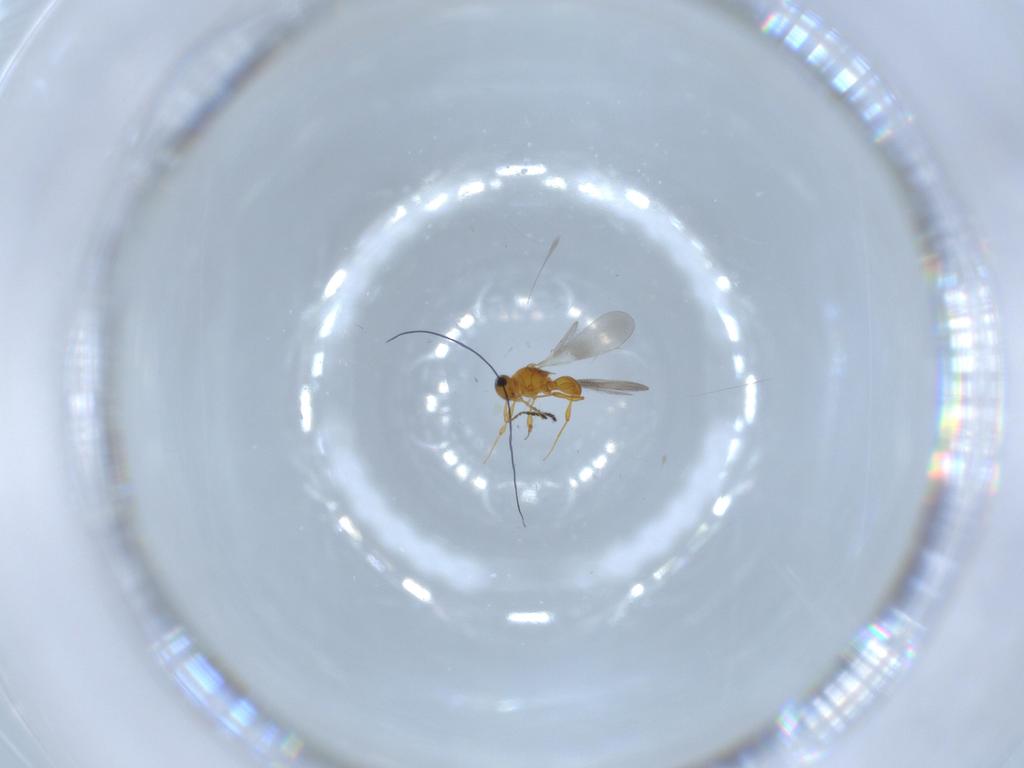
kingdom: Animalia
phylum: Arthropoda
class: Insecta
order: Hymenoptera
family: Platygastridae
